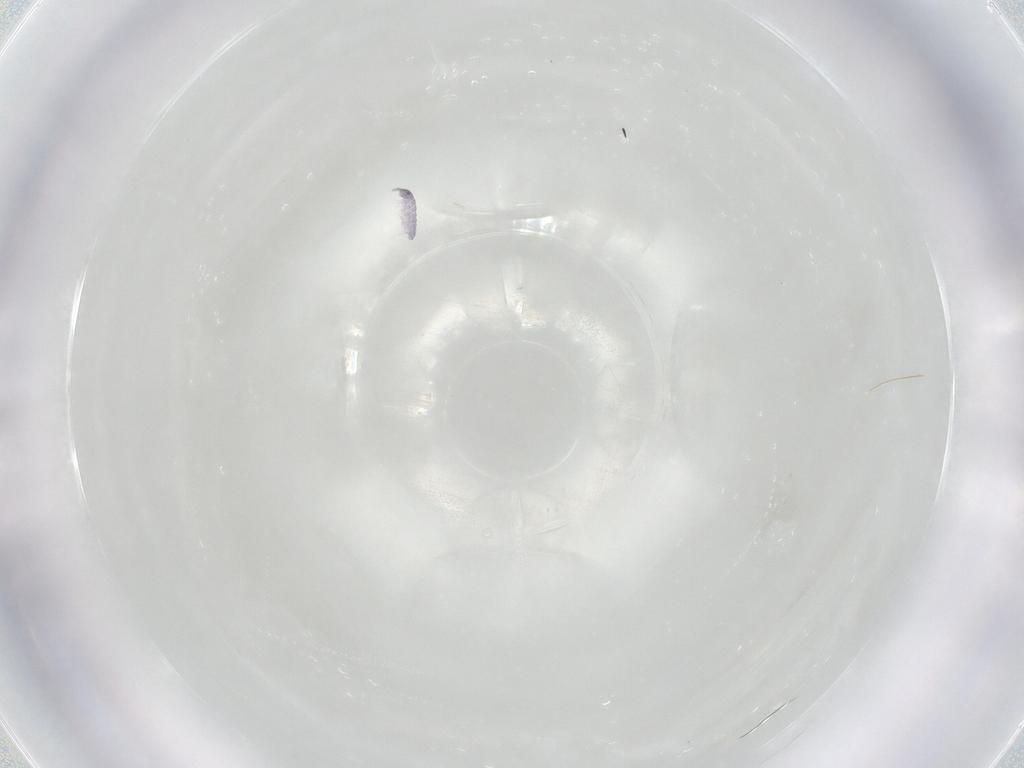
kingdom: Animalia
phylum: Arthropoda
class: Collembola
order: Poduromorpha
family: Neanuridae
